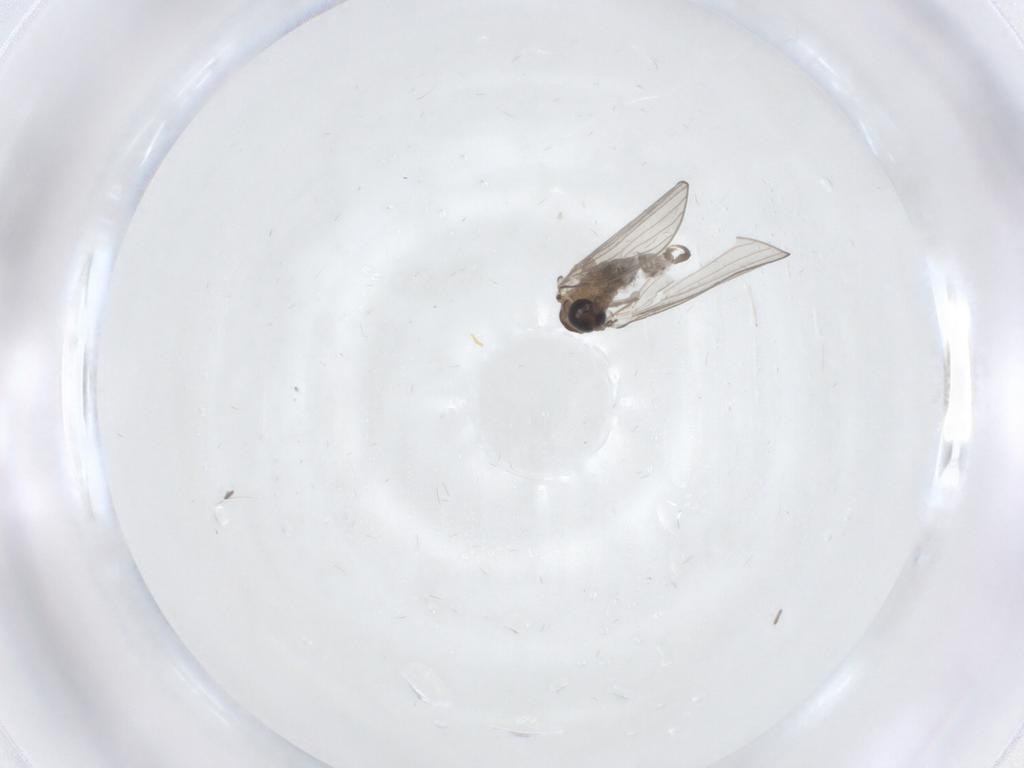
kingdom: Animalia
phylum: Arthropoda
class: Insecta
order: Diptera
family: Psychodidae
